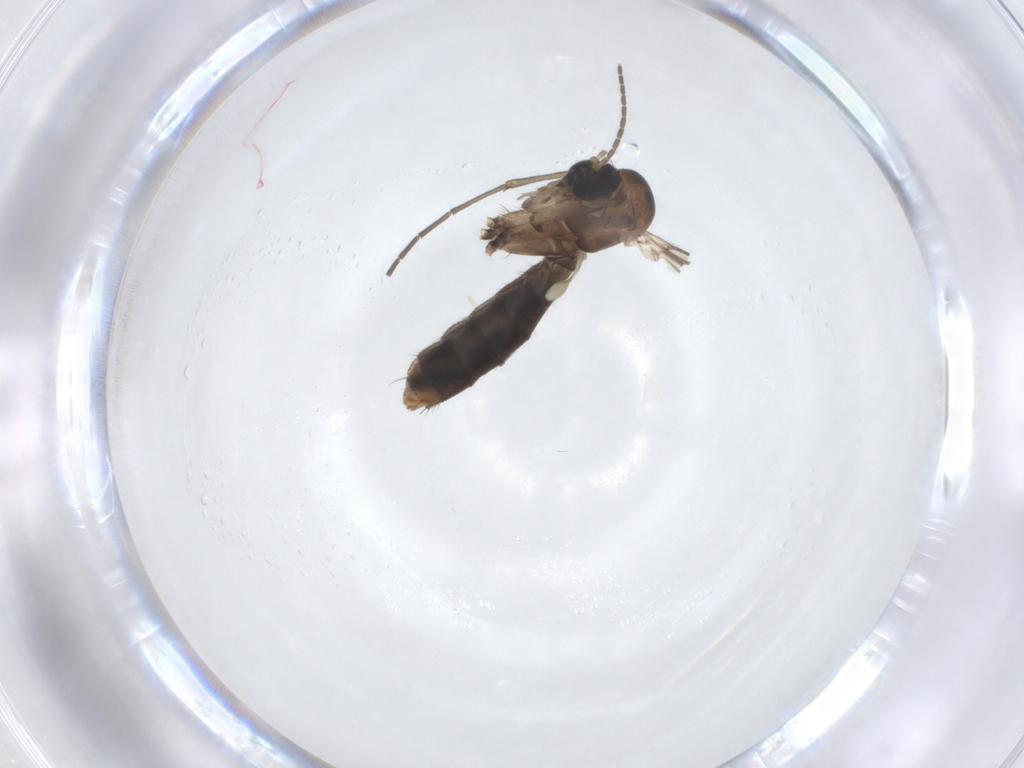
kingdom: Animalia
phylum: Arthropoda
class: Insecta
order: Diptera
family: Mycetophilidae
